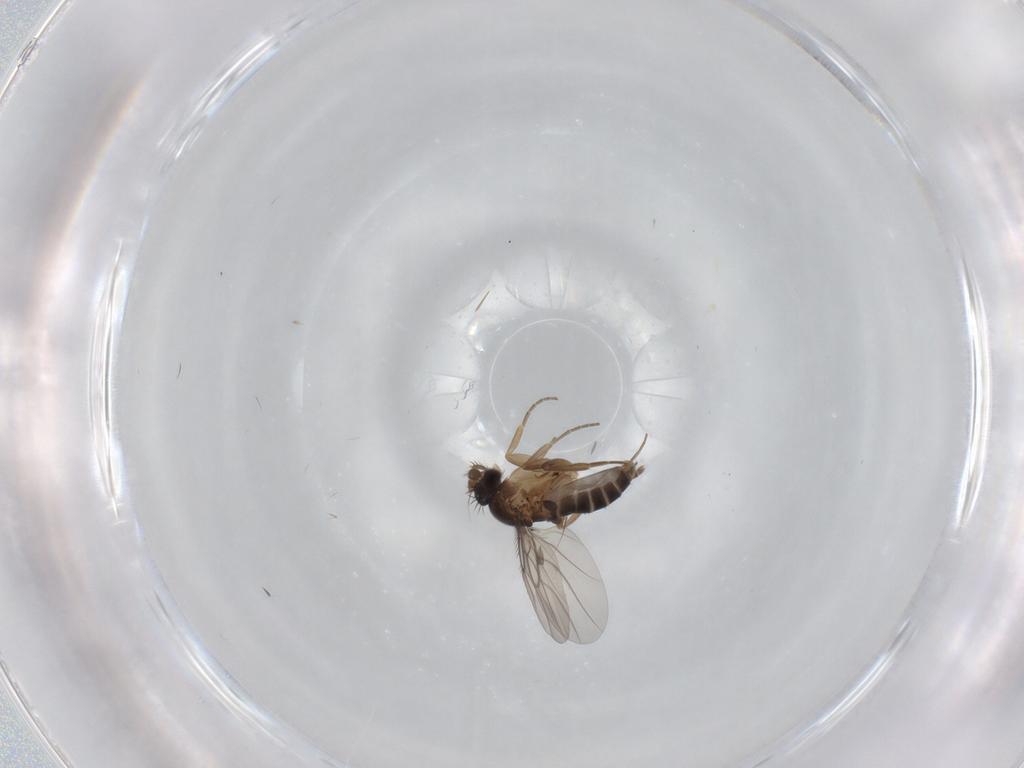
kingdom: Animalia
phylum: Arthropoda
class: Insecta
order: Diptera
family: Phoridae
